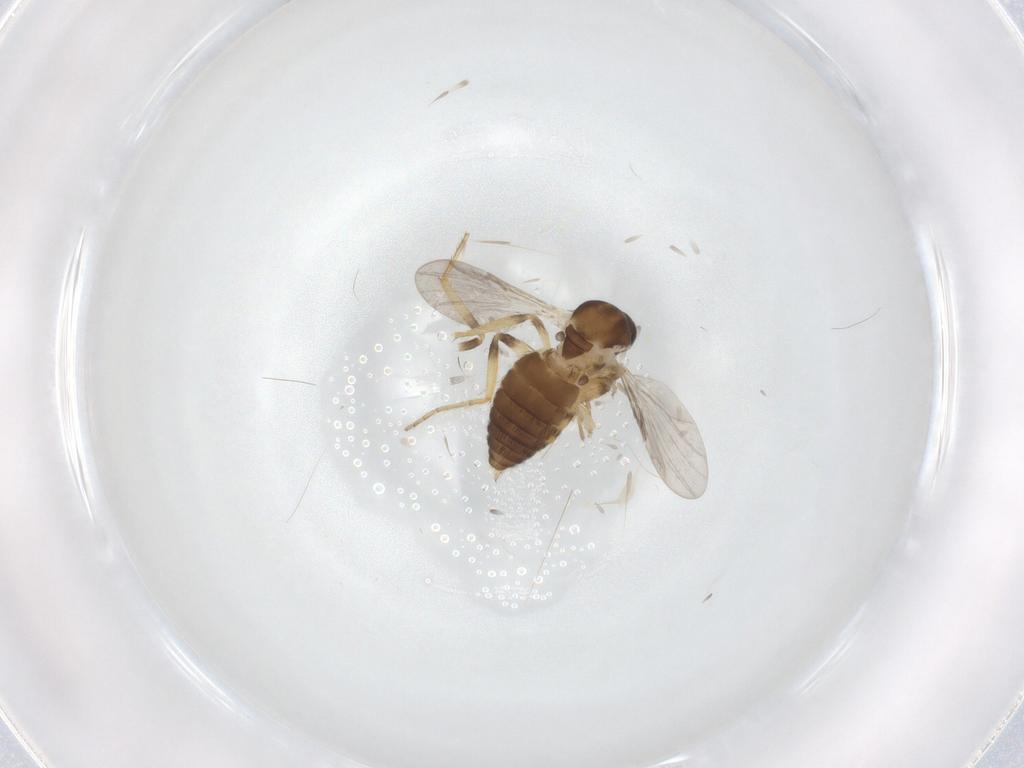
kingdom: Animalia
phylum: Arthropoda
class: Insecta
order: Diptera
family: Ceratopogonidae
